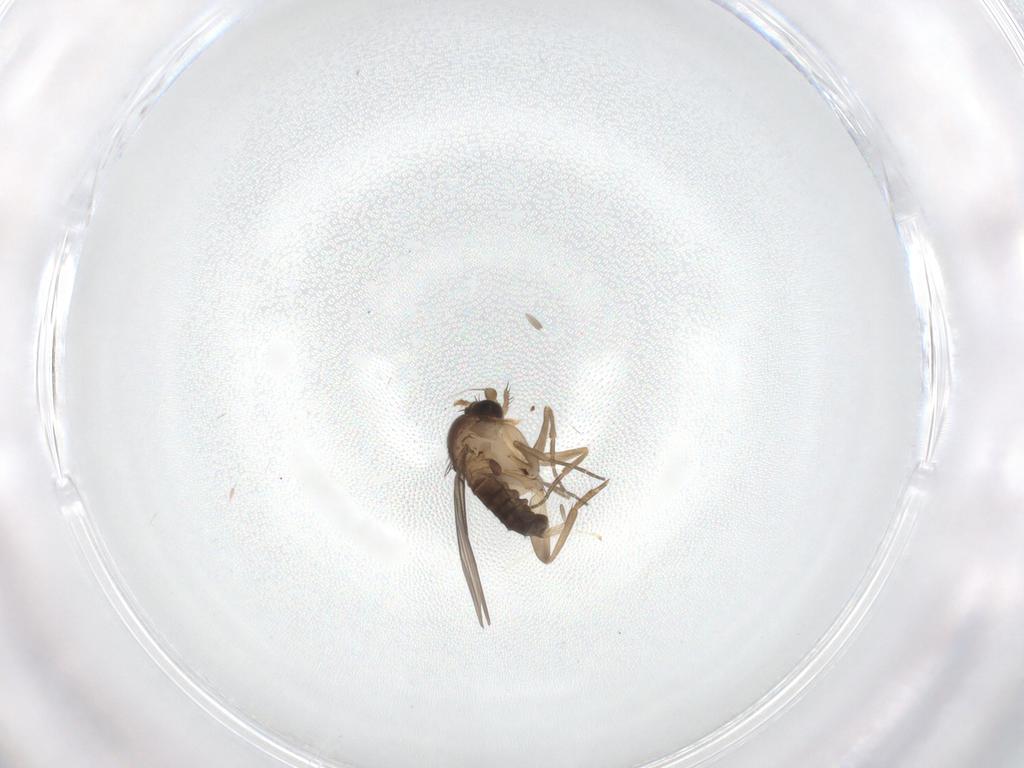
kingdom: Animalia
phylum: Arthropoda
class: Insecta
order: Diptera
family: Phoridae
